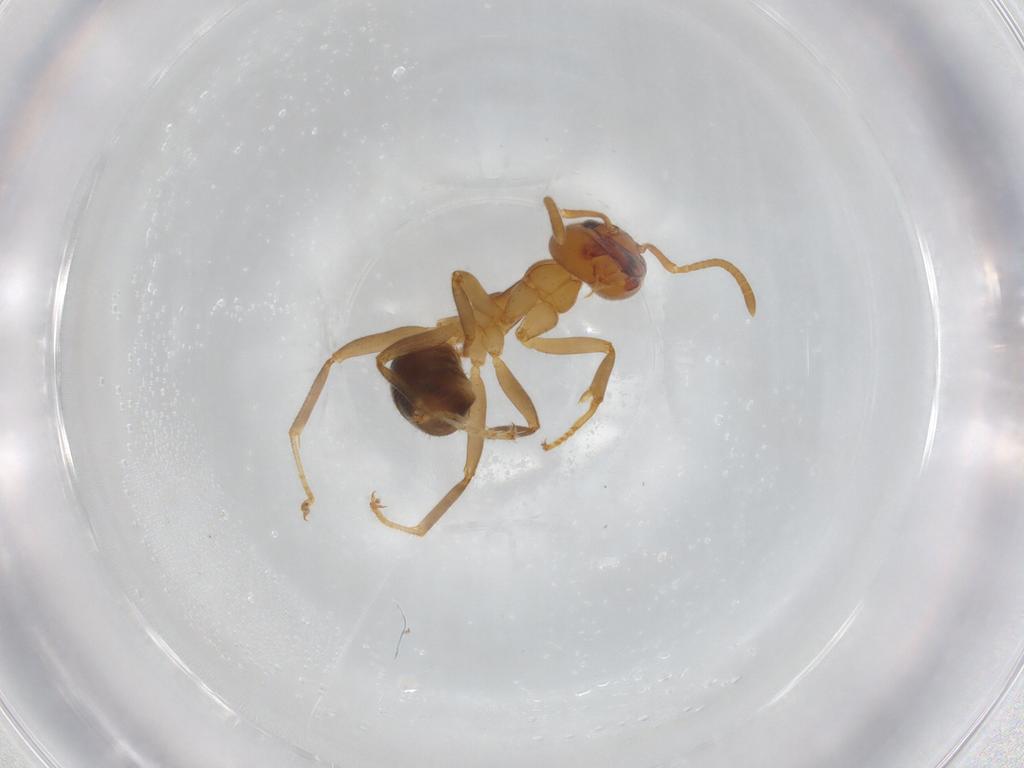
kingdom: Animalia
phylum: Arthropoda
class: Insecta
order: Hymenoptera
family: Formicidae
